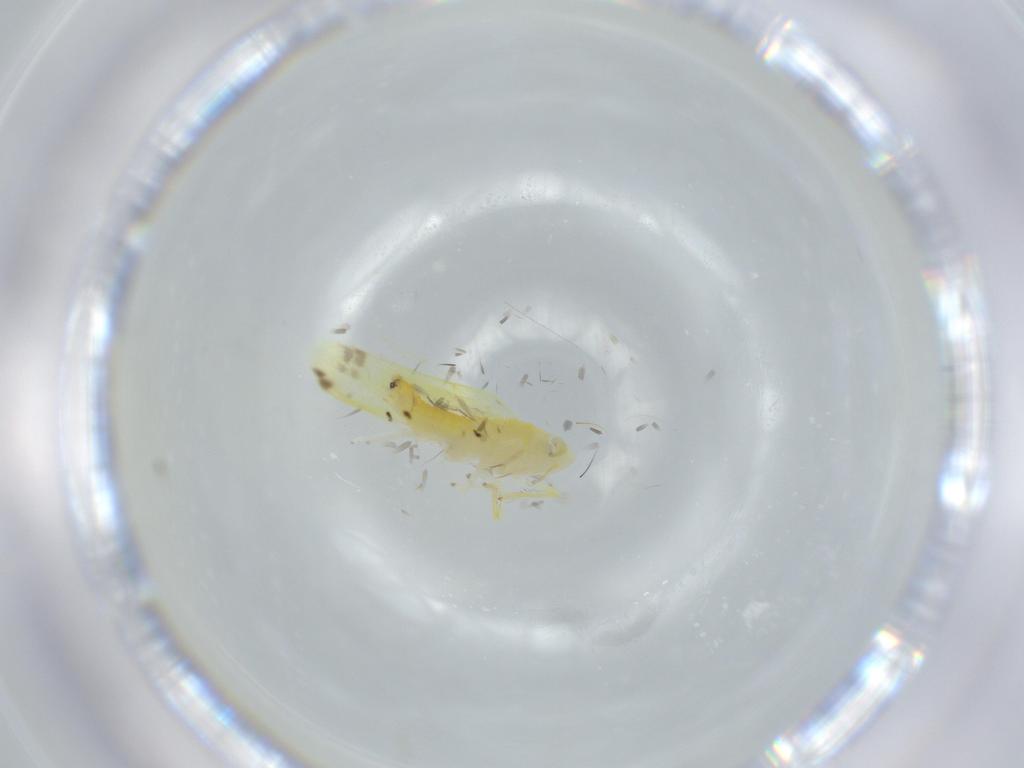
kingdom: Animalia
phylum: Arthropoda
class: Insecta
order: Hemiptera
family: Cicadellidae
